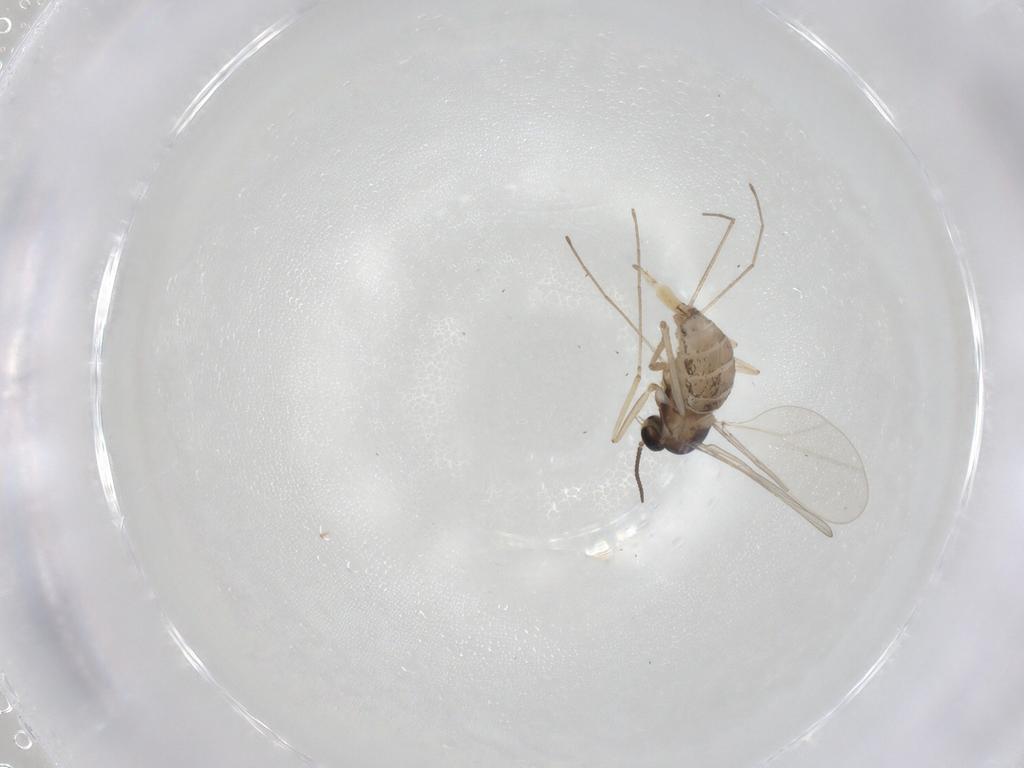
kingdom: Animalia
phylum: Arthropoda
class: Insecta
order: Diptera
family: Cecidomyiidae
